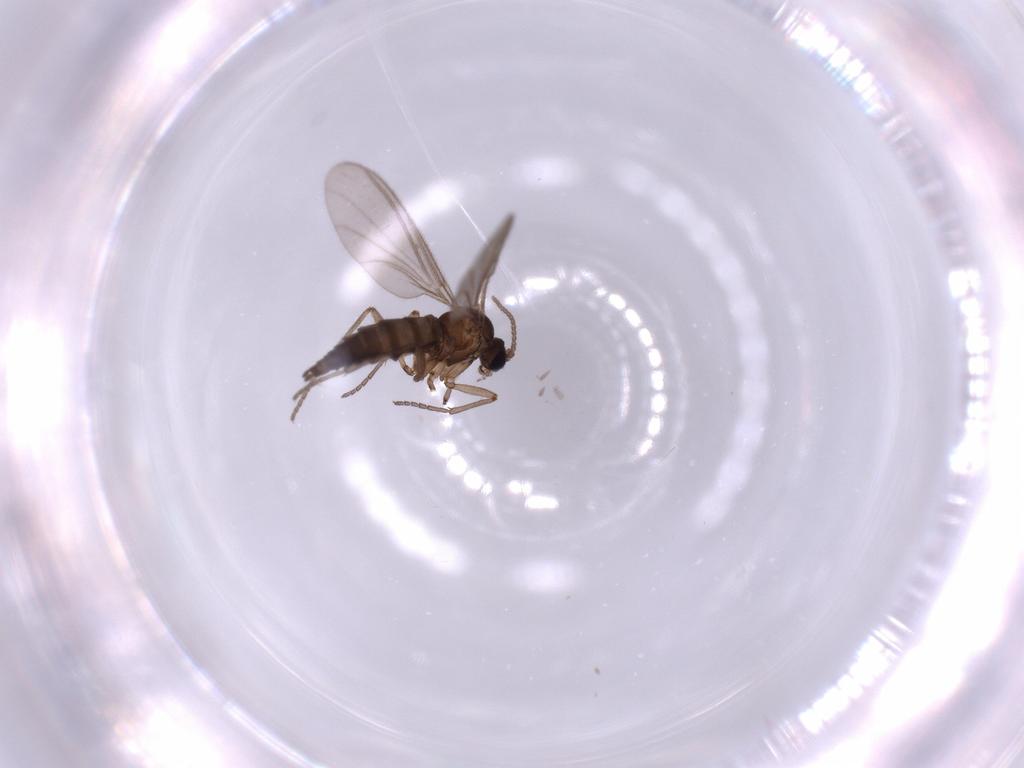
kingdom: Animalia
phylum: Arthropoda
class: Insecta
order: Diptera
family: Sciaridae
